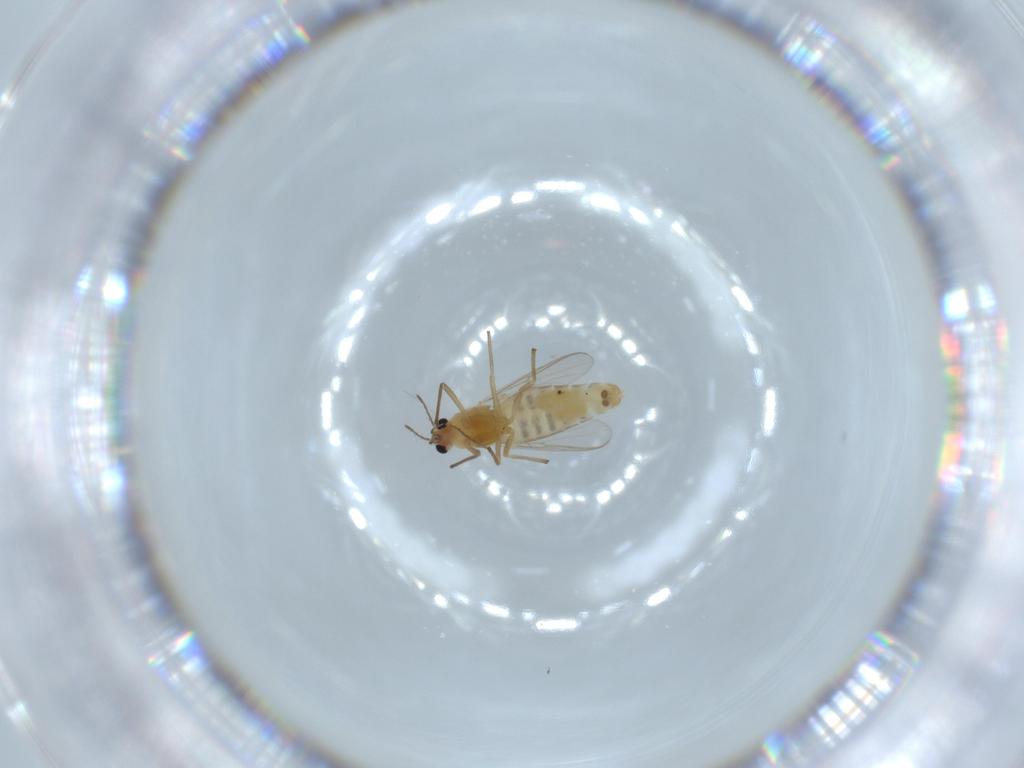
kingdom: Animalia
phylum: Arthropoda
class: Insecta
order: Diptera
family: Chironomidae
